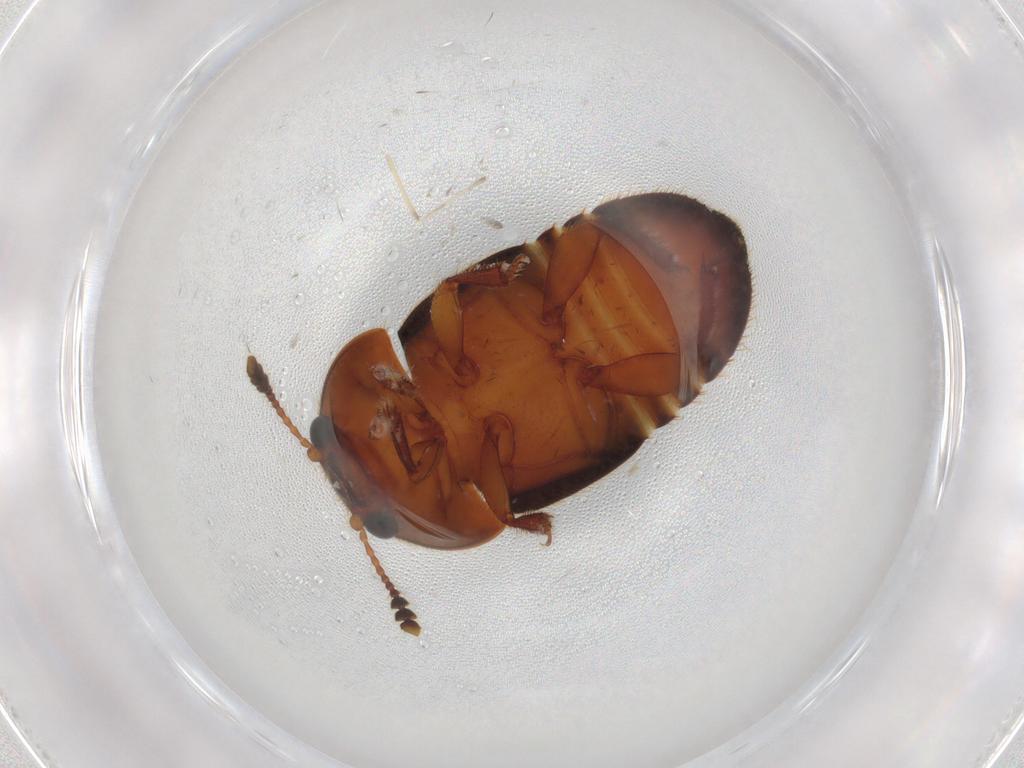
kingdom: Animalia
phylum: Arthropoda
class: Insecta
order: Coleoptera
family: Nitidulidae
